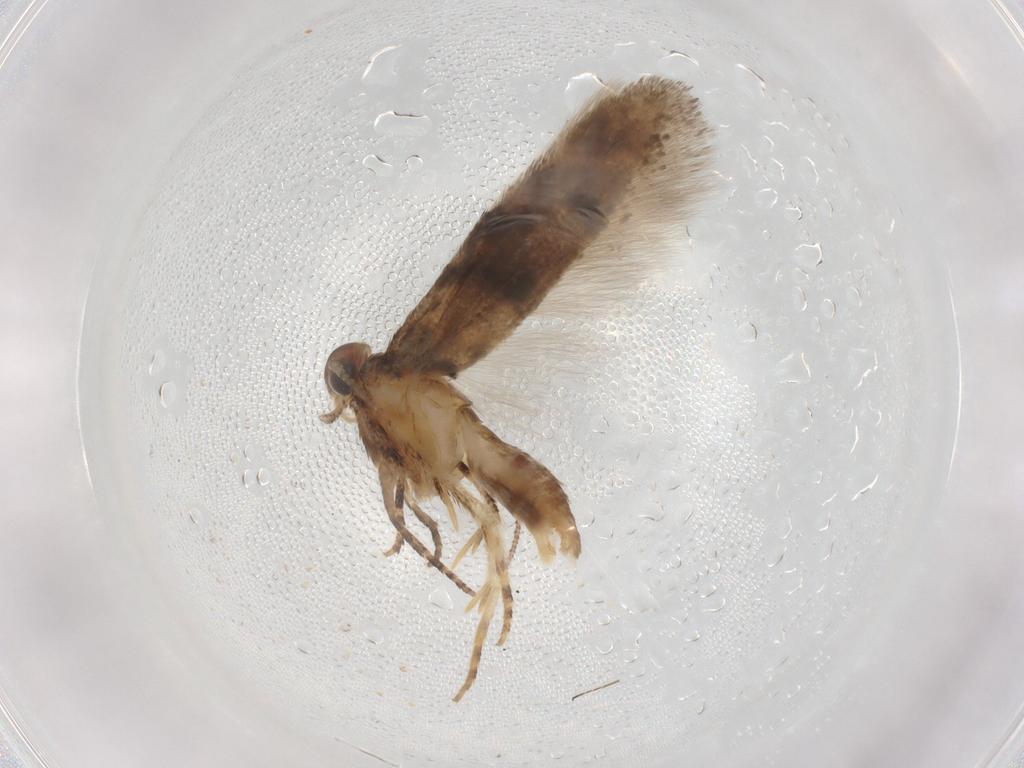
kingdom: Animalia
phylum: Arthropoda
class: Insecta
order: Lepidoptera
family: Gelechiidae
